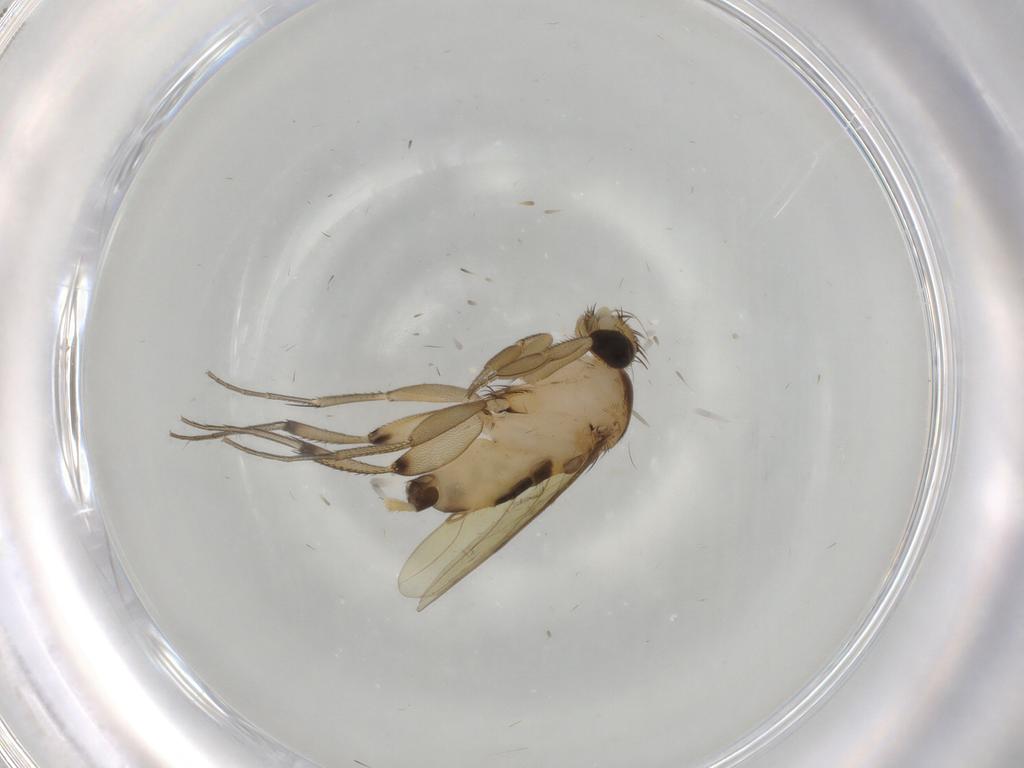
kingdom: Animalia
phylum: Arthropoda
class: Insecta
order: Diptera
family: Phoridae
